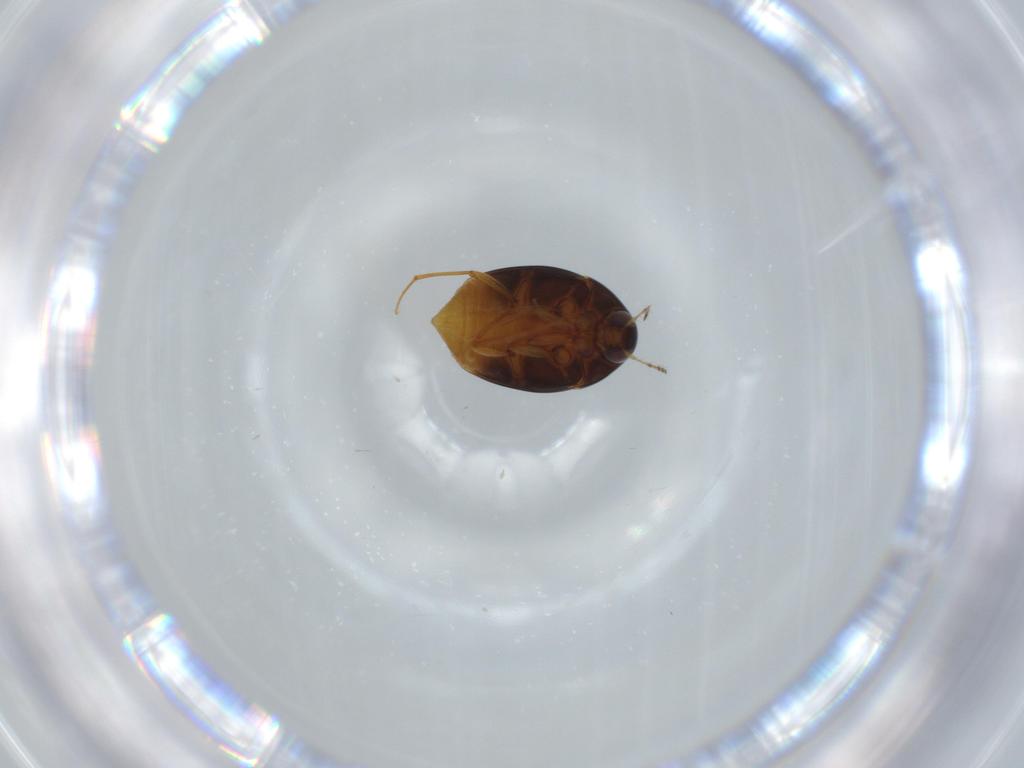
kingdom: Animalia
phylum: Arthropoda
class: Insecta
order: Coleoptera
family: Staphylinidae
